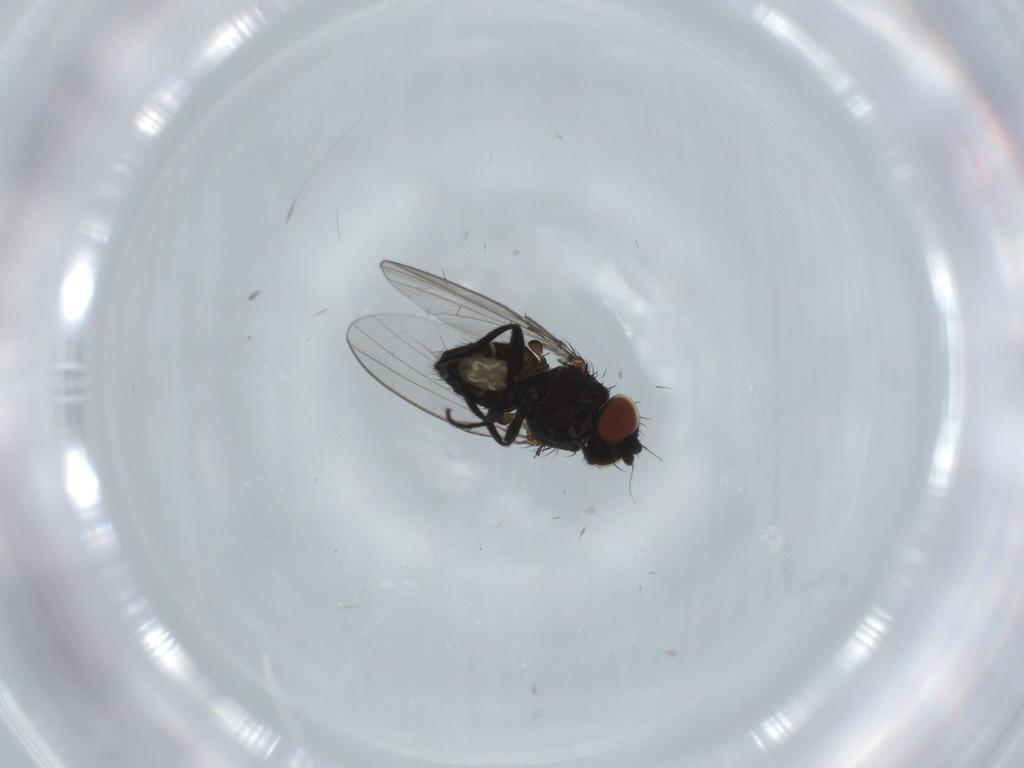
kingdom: Animalia
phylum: Arthropoda
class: Insecta
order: Diptera
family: Phoridae
